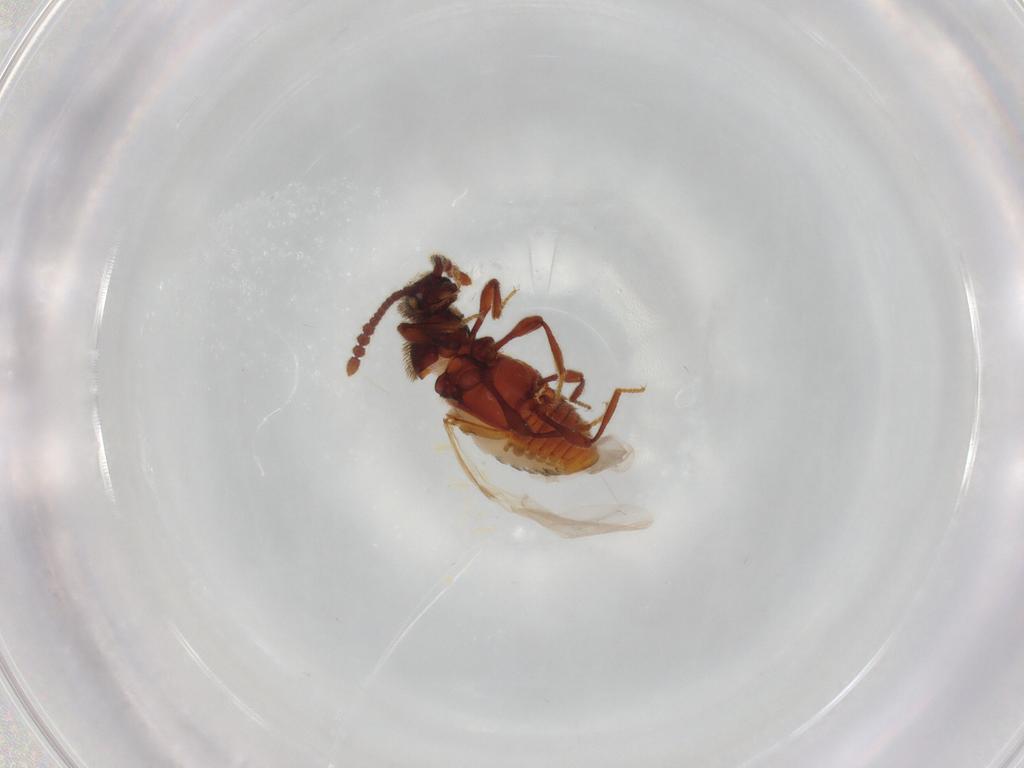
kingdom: Animalia
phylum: Arthropoda
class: Insecta
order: Coleoptera
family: Staphylinidae
